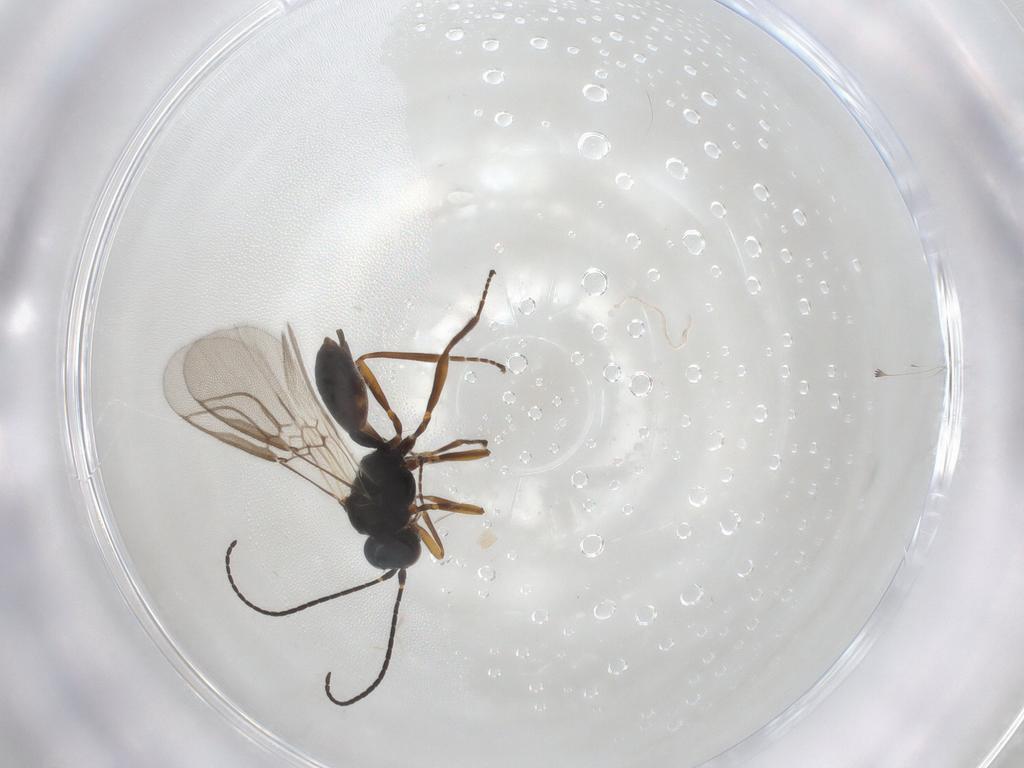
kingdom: Animalia
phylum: Arthropoda
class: Insecta
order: Hymenoptera
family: Braconidae
